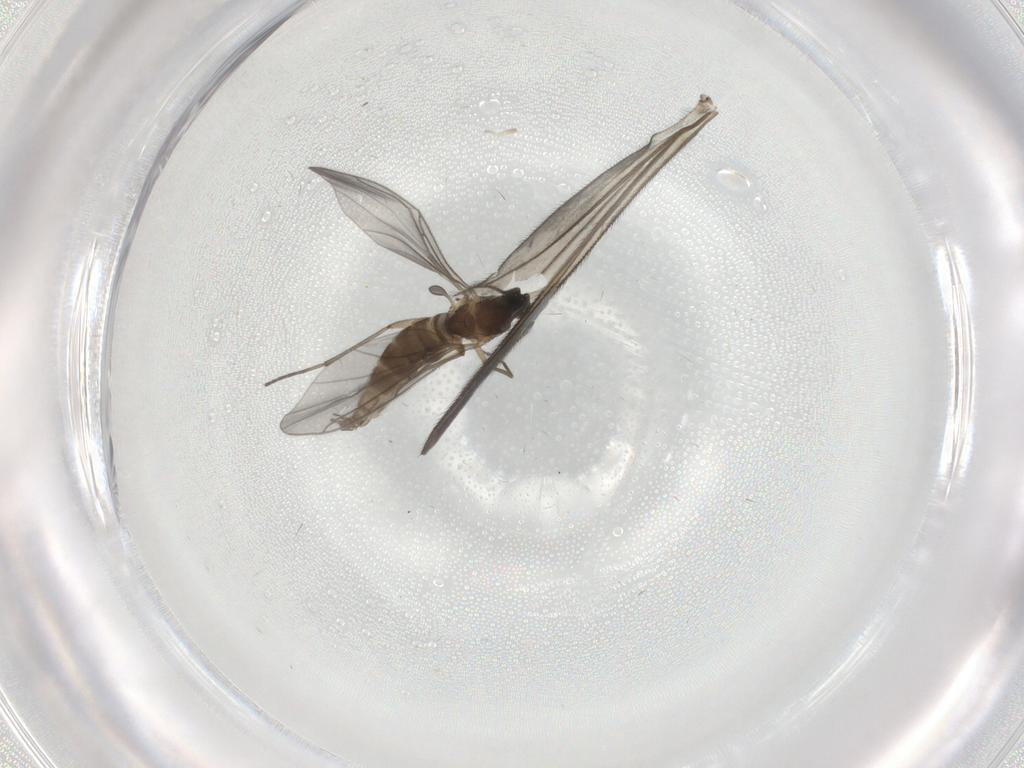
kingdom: Animalia
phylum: Arthropoda
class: Insecta
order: Diptera
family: Sciaridae
